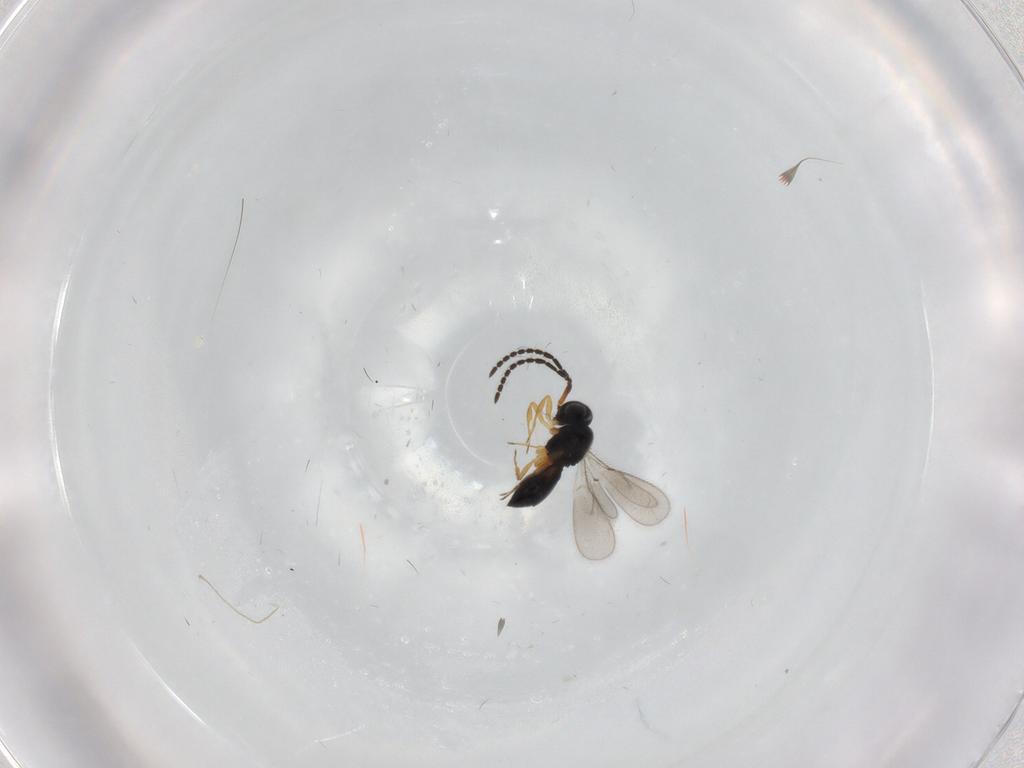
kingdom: Animalia
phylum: Arthropoda
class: Insecta
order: Hymenoptera
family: Scelionidae
